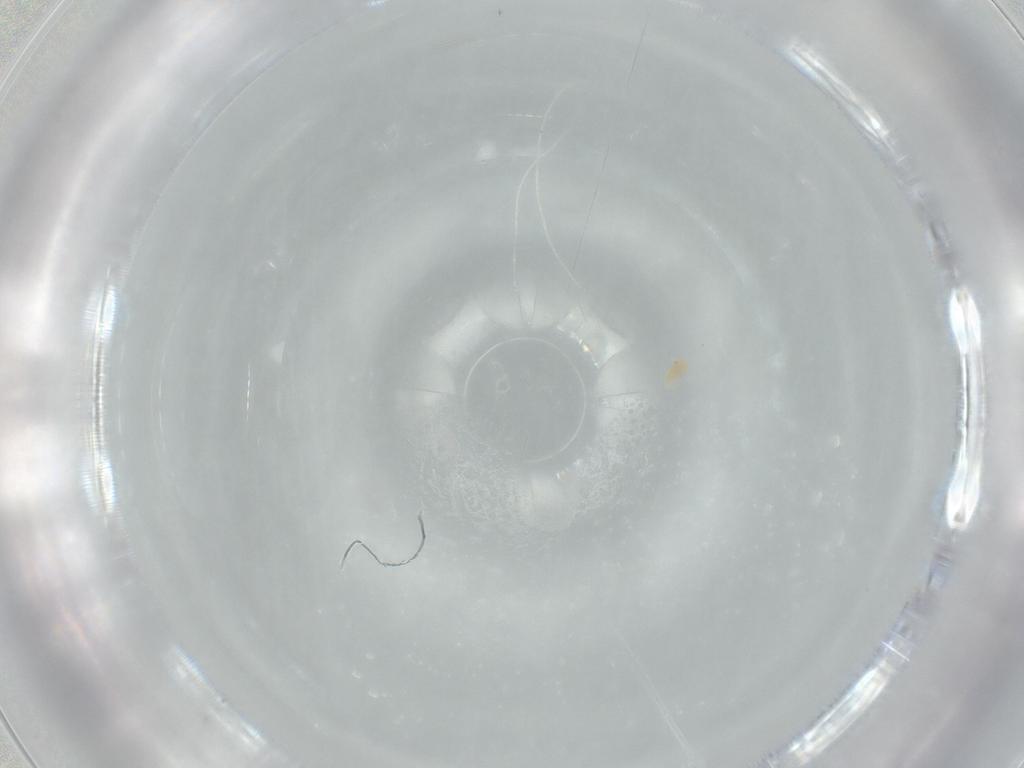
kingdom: Animalia
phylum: Arthropoda
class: Arachnida
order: Trombidiformes
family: Eupodidae
